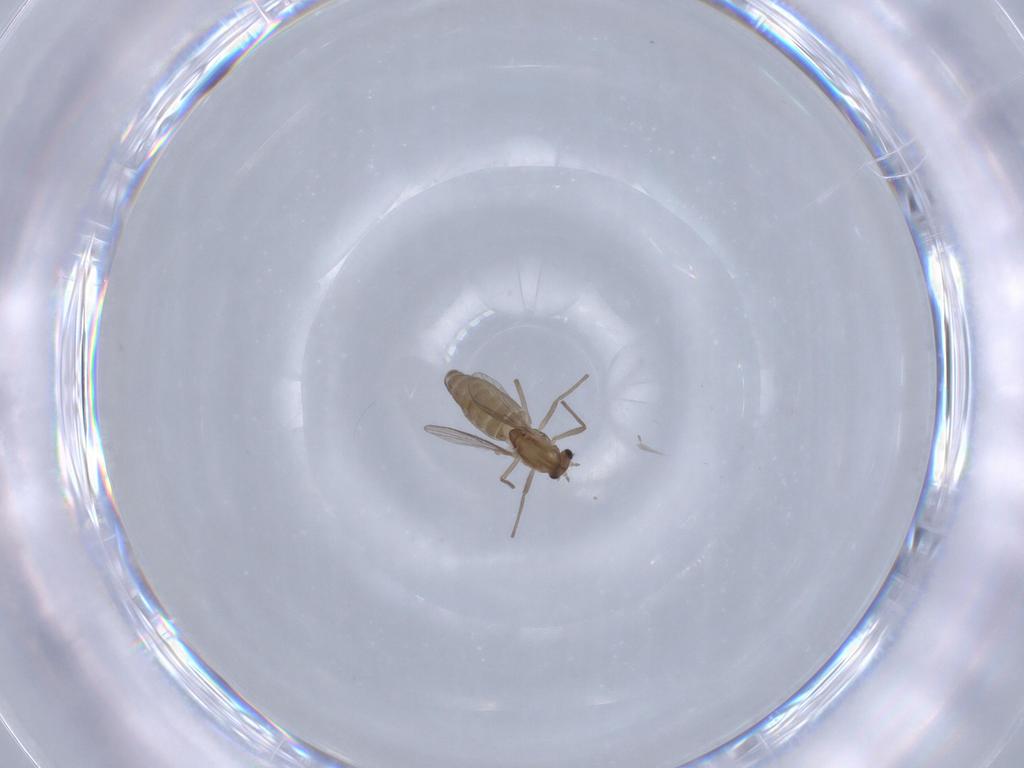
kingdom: Animalia
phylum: Arthropoda
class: Insecta
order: Diptera
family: Chironomidae
